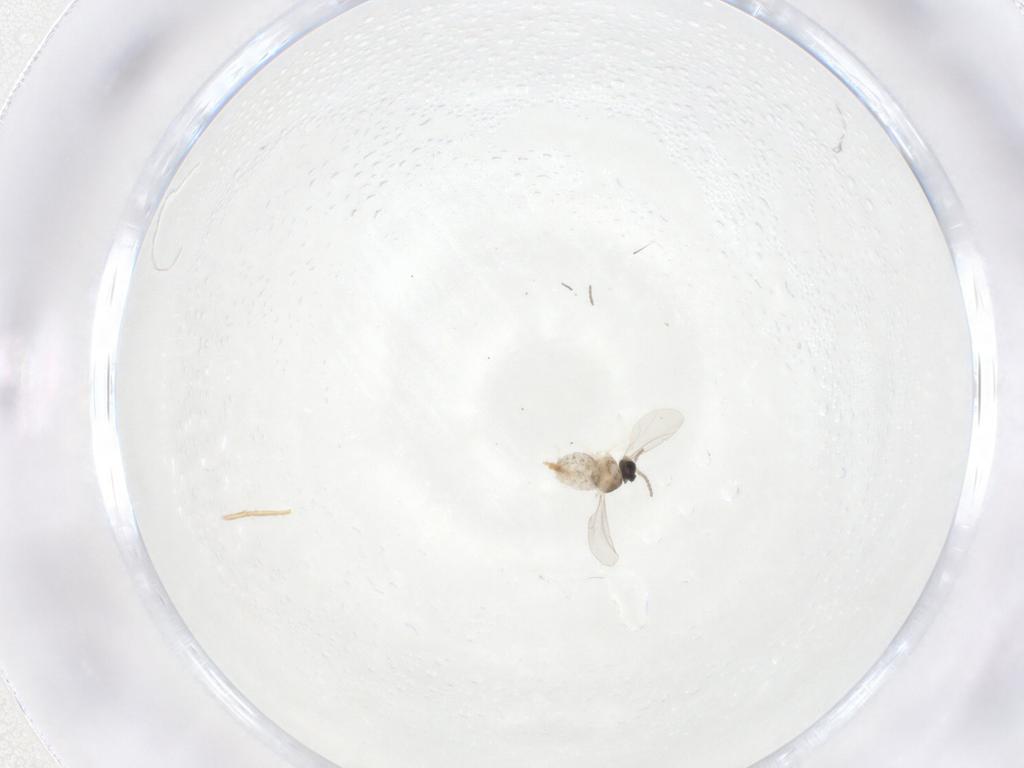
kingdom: Animalia
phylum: Arthropoda
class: Insecta
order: Diptera
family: Cecidomyiidae
